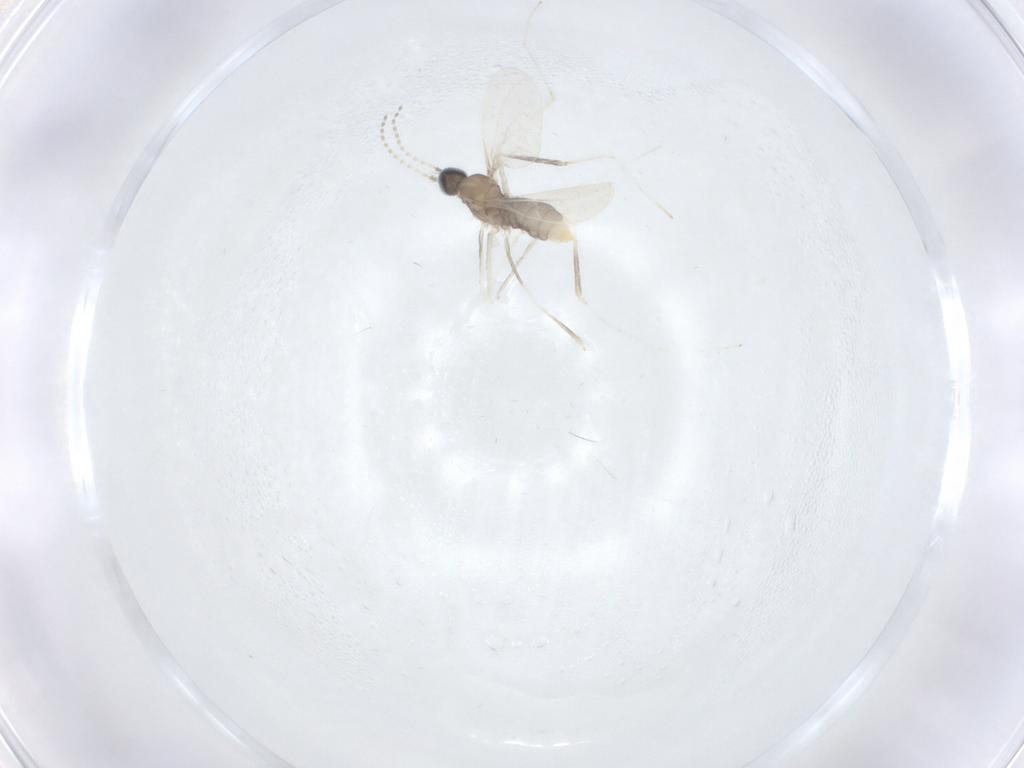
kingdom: Animalia
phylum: Arthropoda
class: Insecta
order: Diptera
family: Cecidomyiidae
